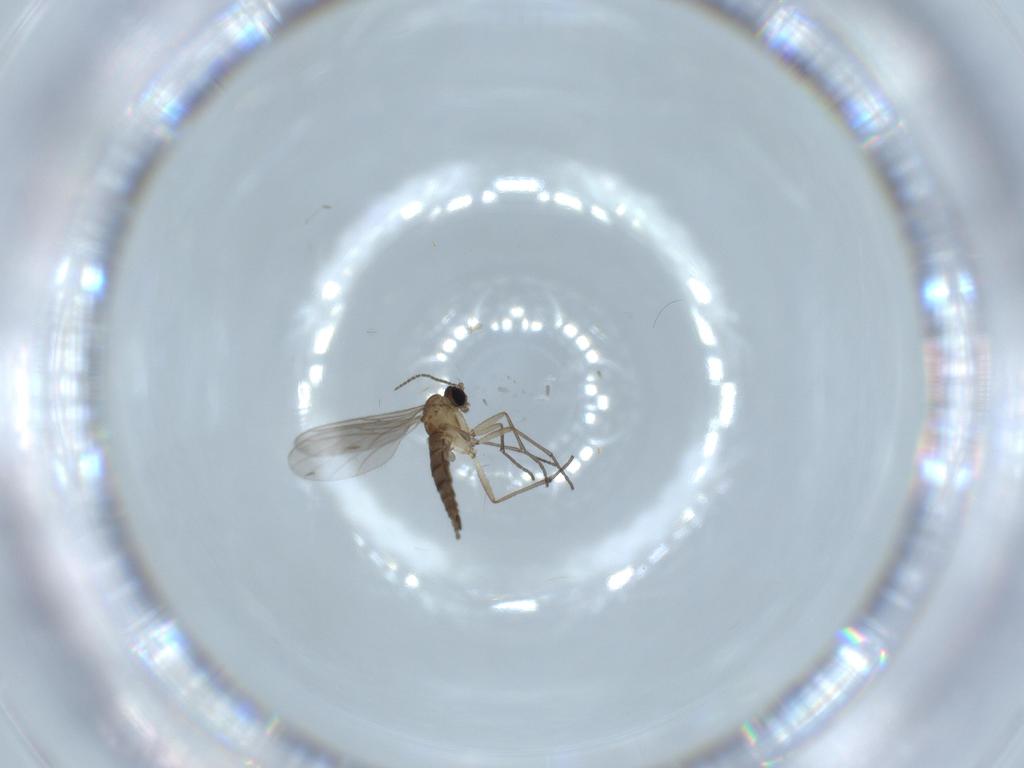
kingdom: Animalia
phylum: Arthropoda
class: Insecta
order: Diptera
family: Sciaridae
